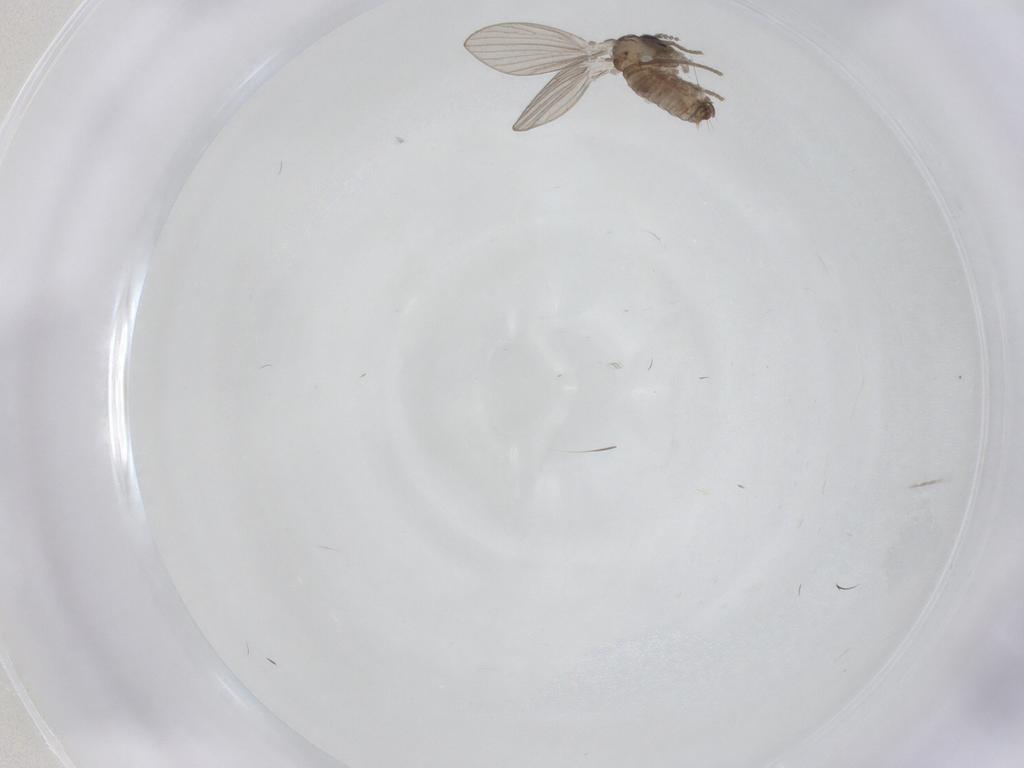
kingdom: Animalia
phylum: Arthropoda
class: Insecta
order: Diptera
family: Psychodidae
